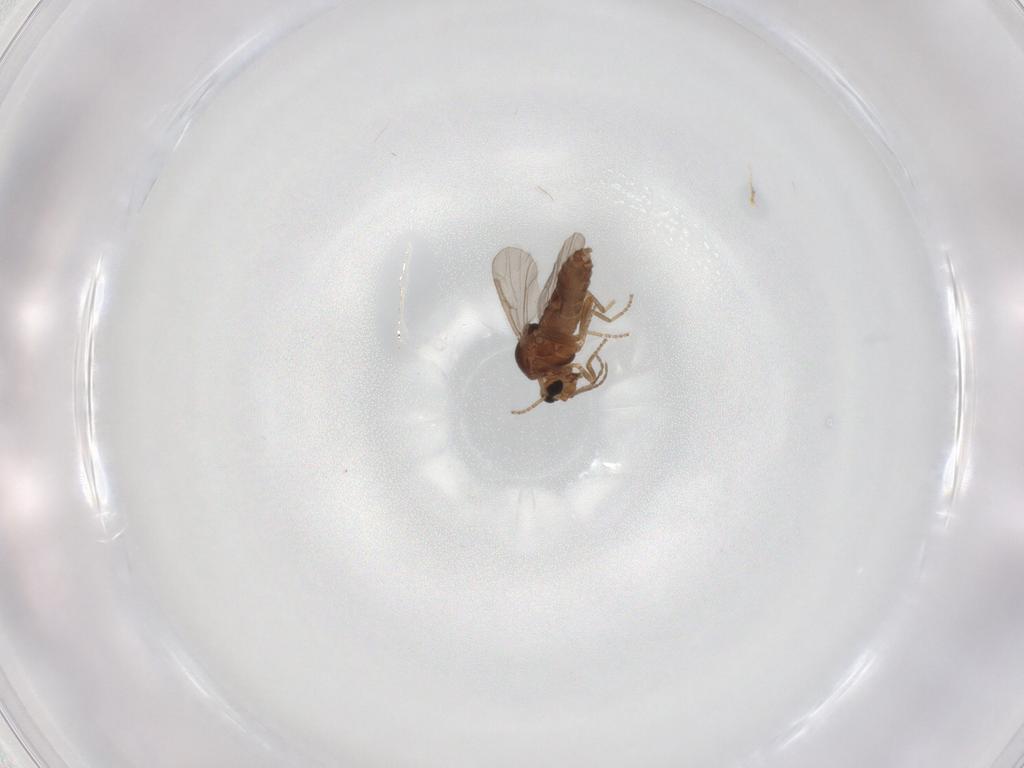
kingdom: Animalia
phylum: Arthropoda
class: Insecta
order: Diptera
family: Ceratopogonidae
